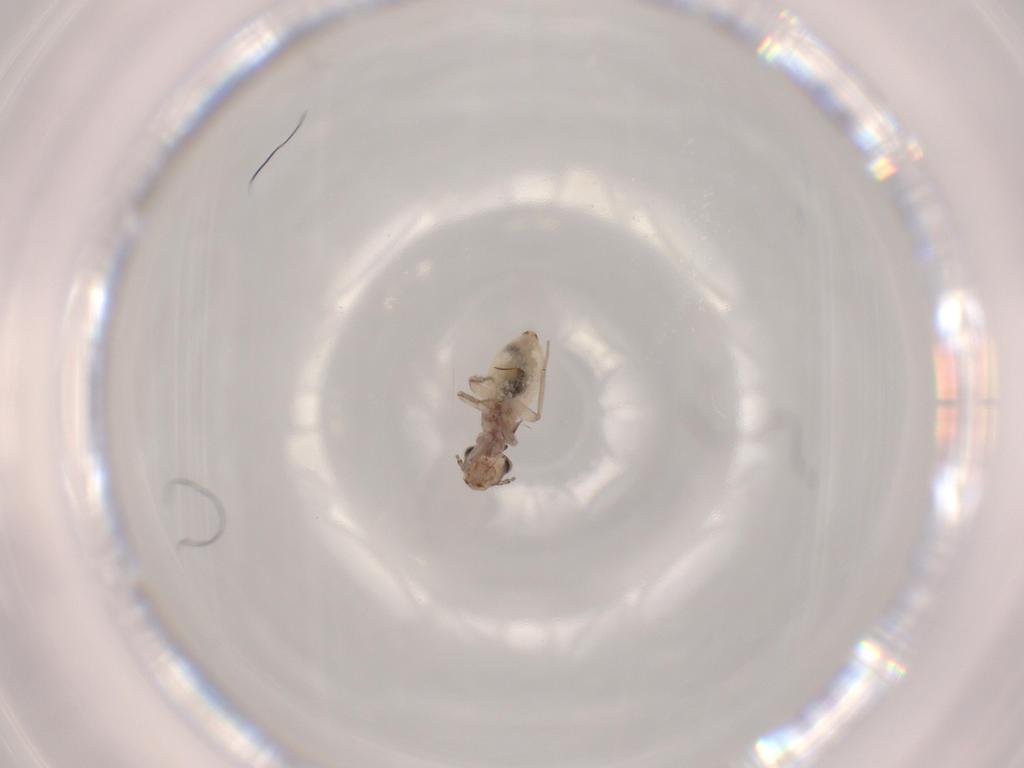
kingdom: Animalia
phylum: Arthropoda
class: Insecta
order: Psocodea
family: Lepidopsocidae
